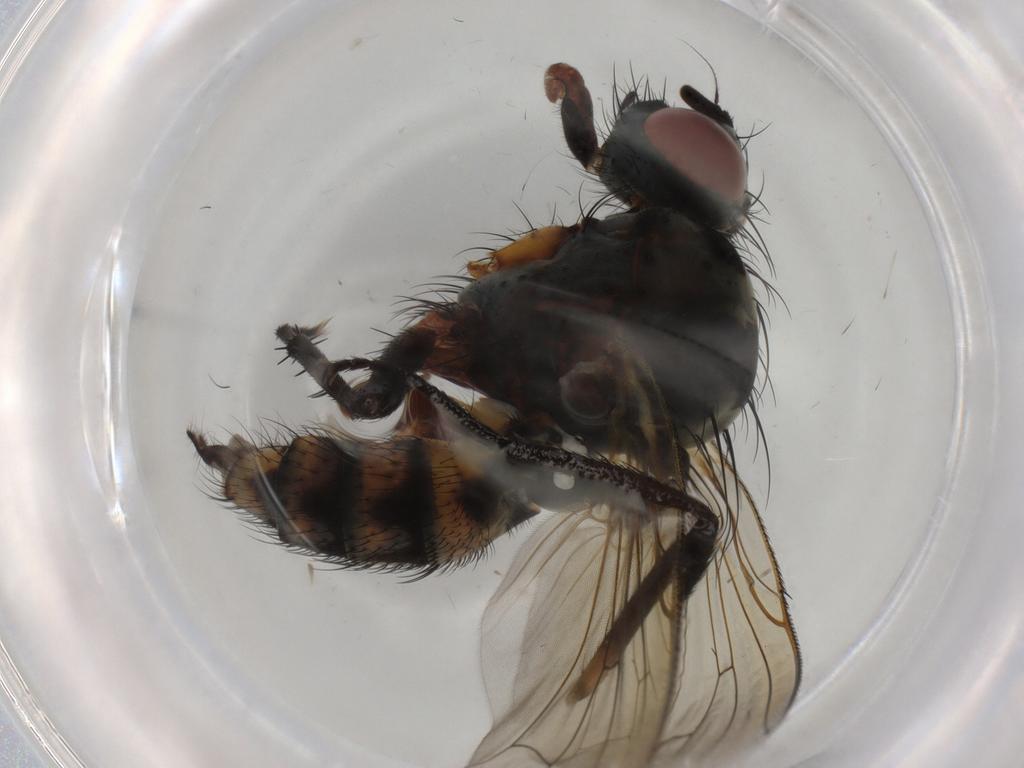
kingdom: Animalia
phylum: Arthropoda
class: Insecta
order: Diptera
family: Anthomyiidae
